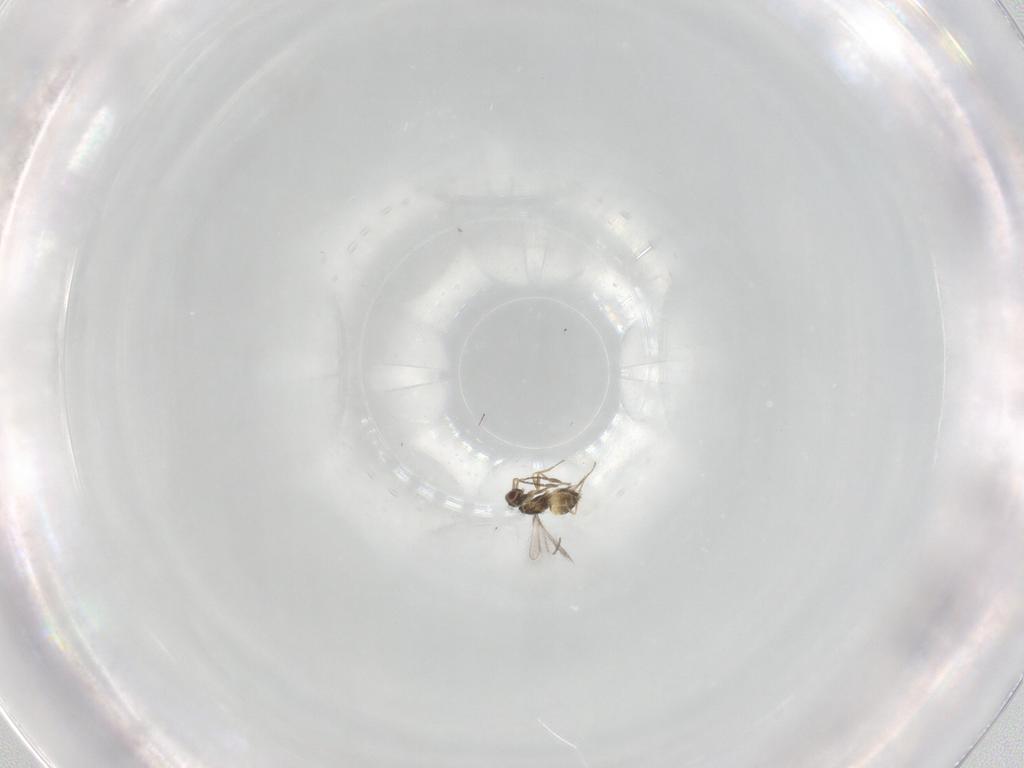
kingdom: Animalia
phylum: Arthropoda
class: Insecta
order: Hymenoptera
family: Mymaridae
